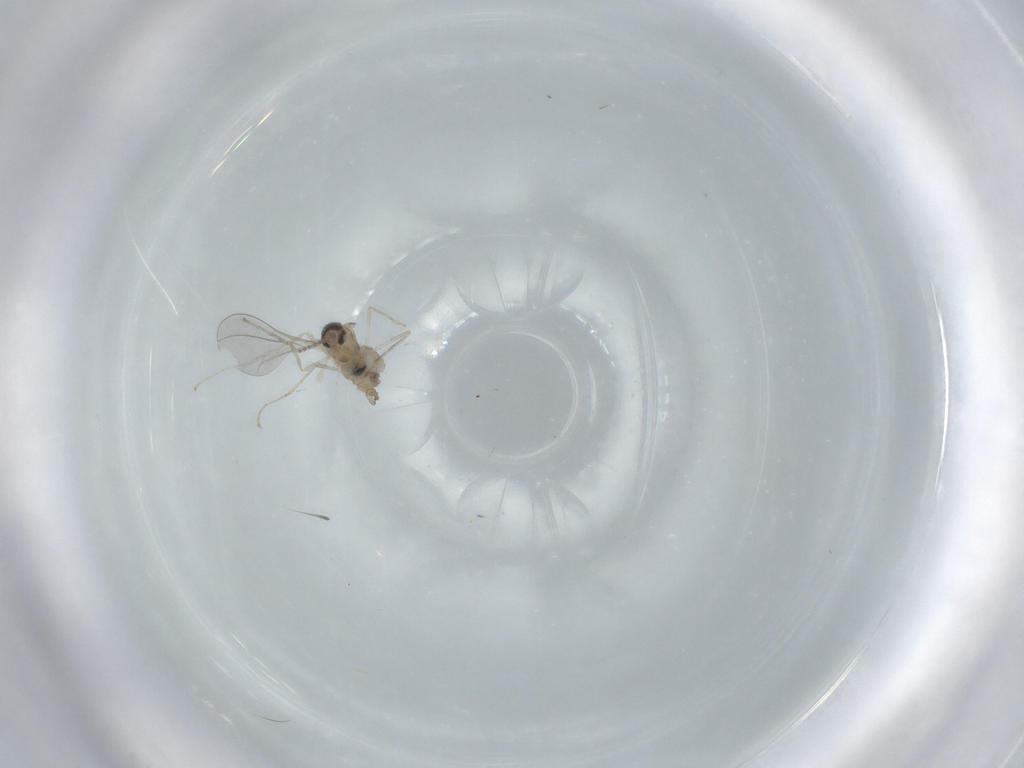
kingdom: Animalia
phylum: Arthropoda
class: Insecta
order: Diptera
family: Cecidomyiidae
